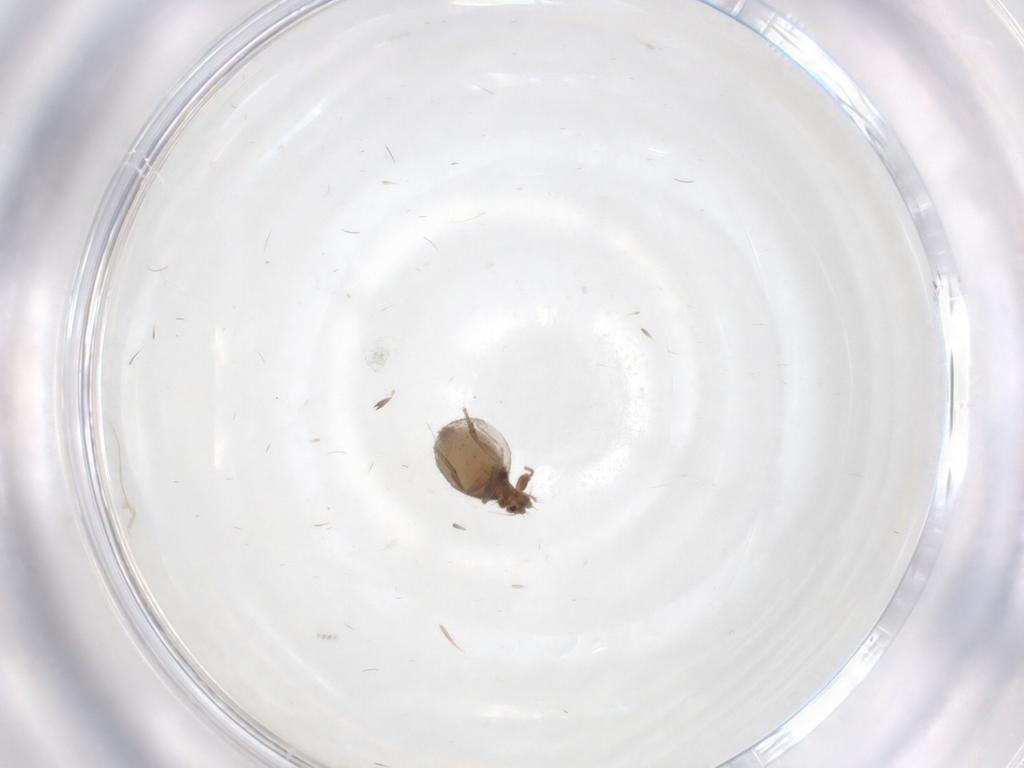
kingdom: Animalia
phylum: Arthropoda
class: Insecta
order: Diptera
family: Phoridae
